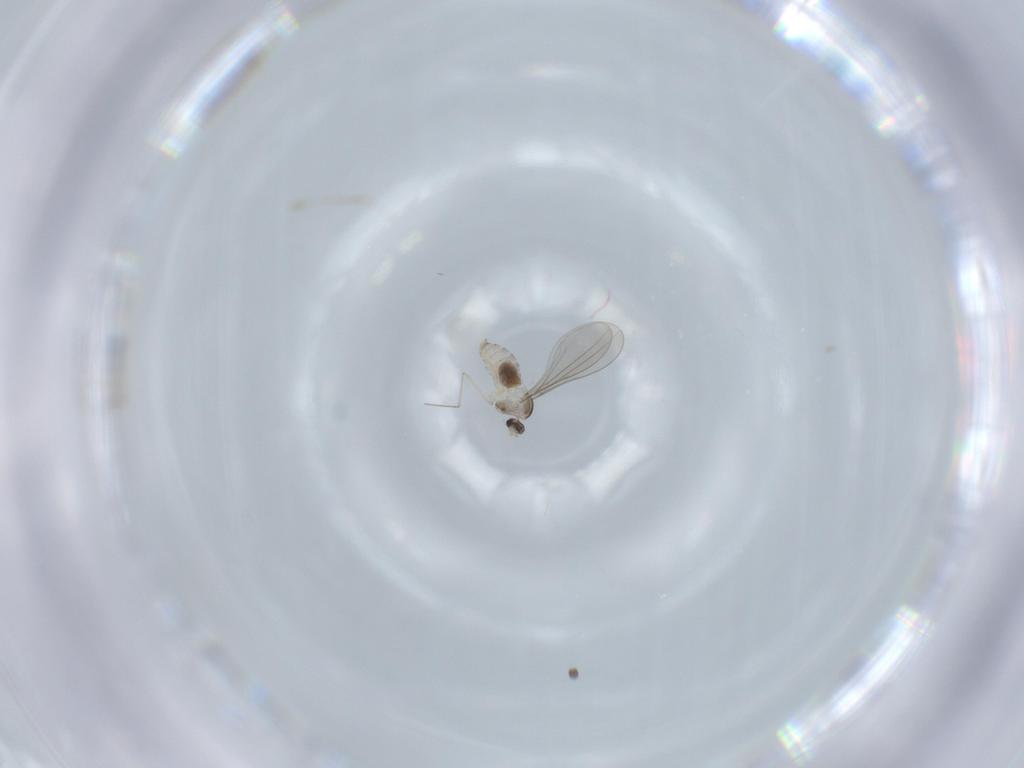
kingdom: Animalia
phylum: Arthropoda
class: Insecta
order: Diptera
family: Cecidomyiidae
